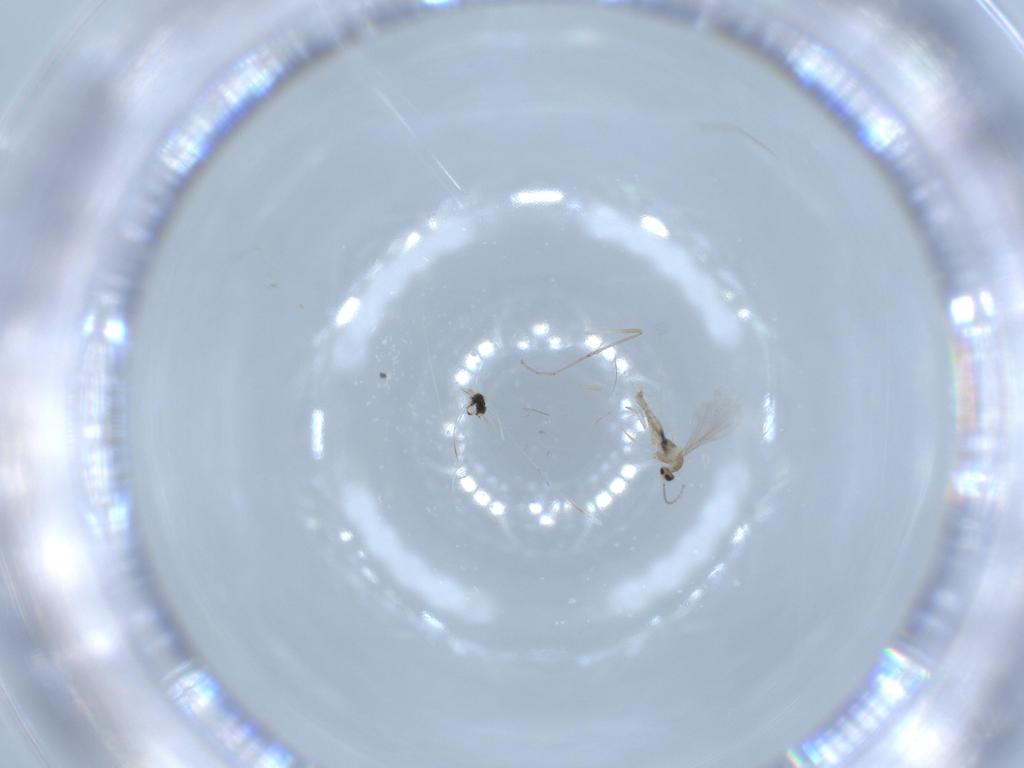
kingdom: Animalia
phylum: Arthropoda
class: Insecta
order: Diptera
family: Cecidomyiidae
